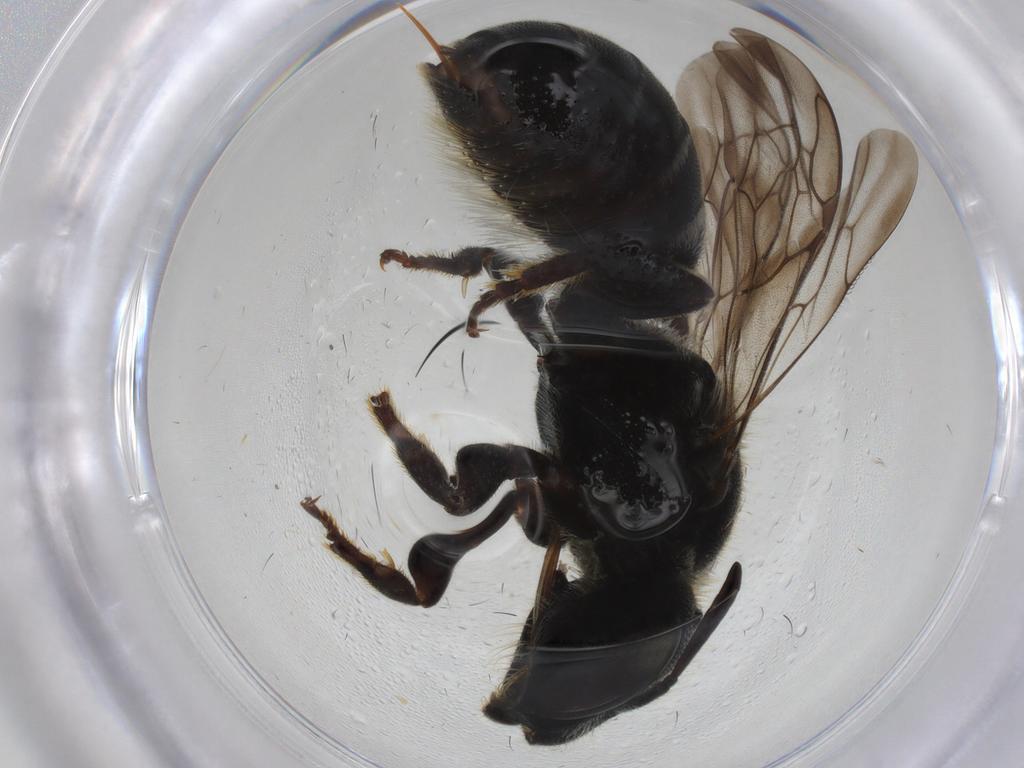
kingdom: Animalia
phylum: Arthropoda
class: Insecta
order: Hymenoptera
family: Megachilidae
